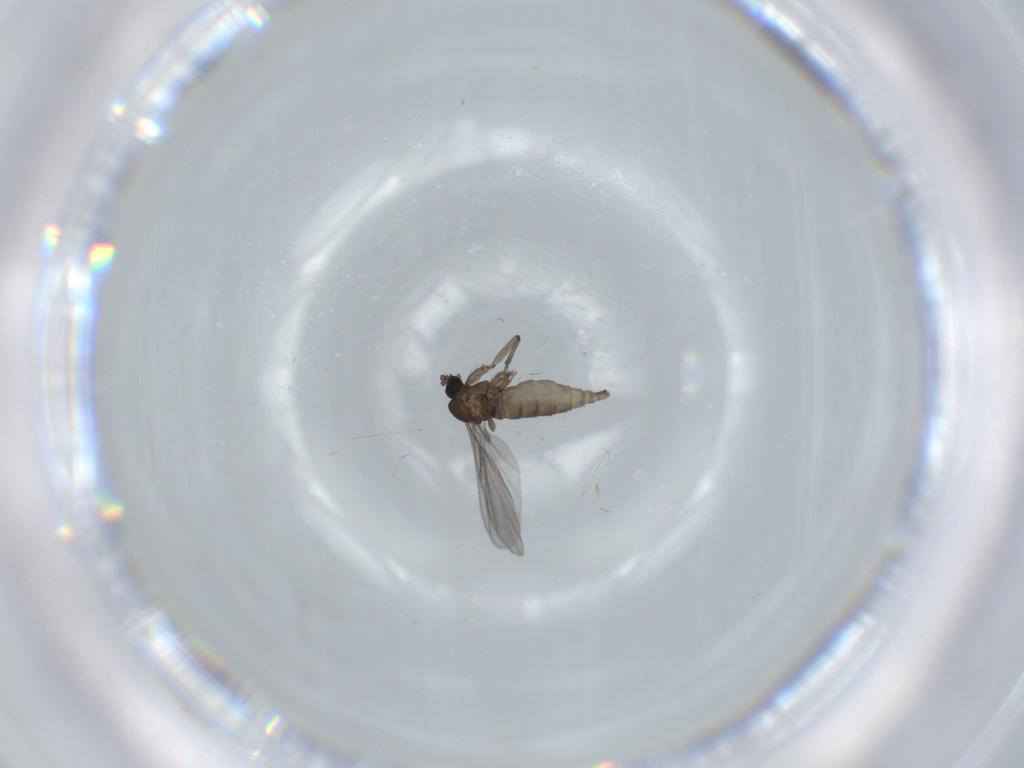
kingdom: Animalia
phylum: Arthropoda
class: Insecta
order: Diptera
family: Sciaridae
